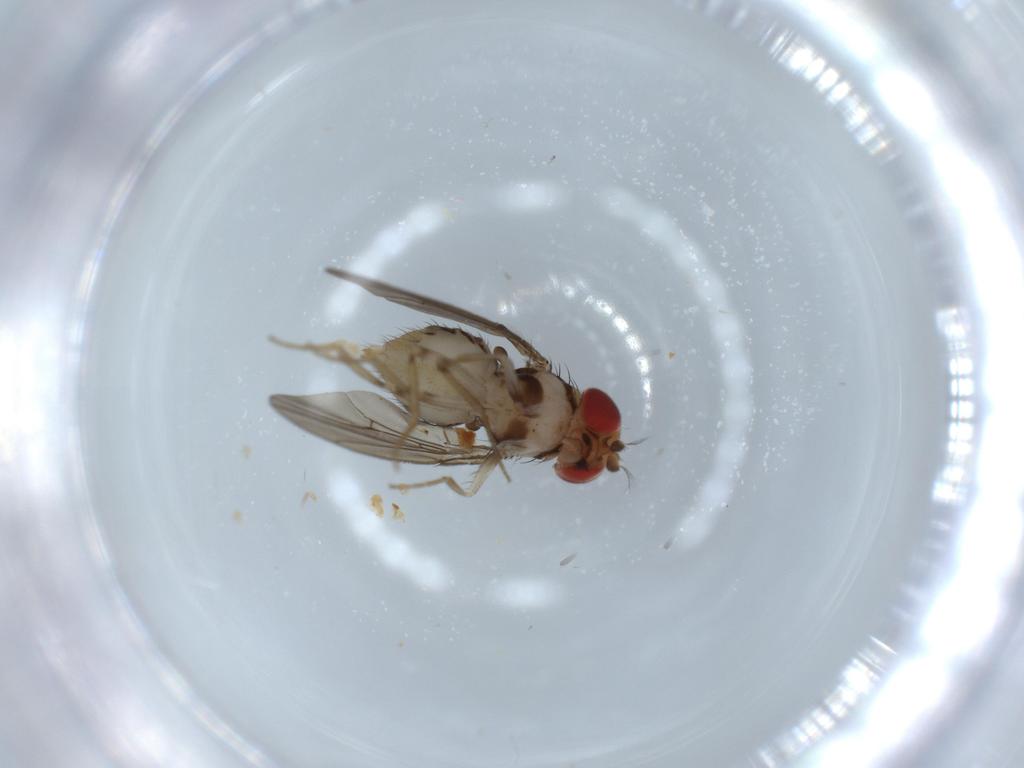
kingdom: Animalia
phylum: Arthropoda
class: Insecta
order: Diptera
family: Drosophilidae
